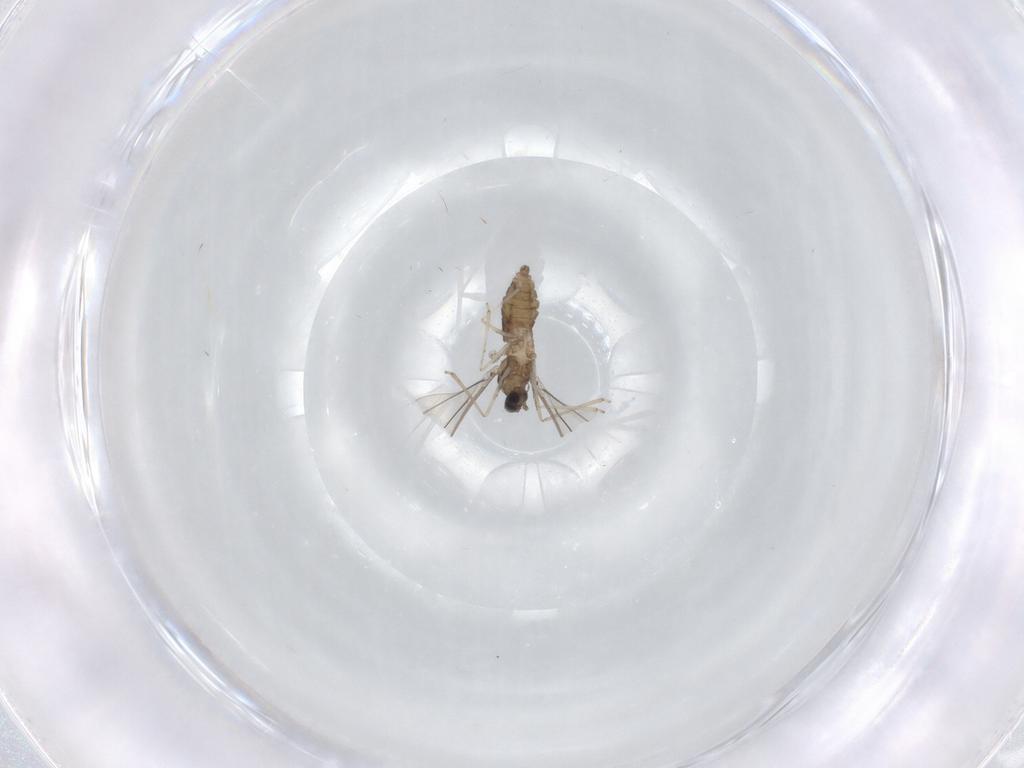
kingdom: Animalia
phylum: Arthropoda
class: Insecta
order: Diptera
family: Cecidomyiidae
